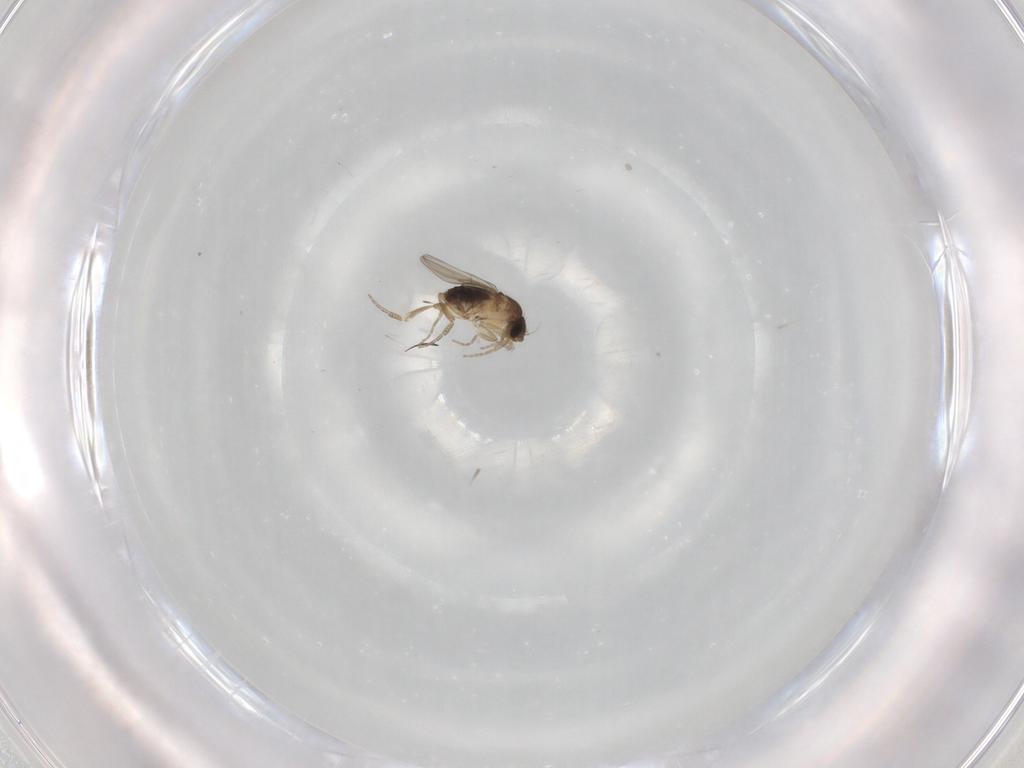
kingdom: Animalia
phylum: Arthropoda
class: Insecta
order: Diptera
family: Phoridae
